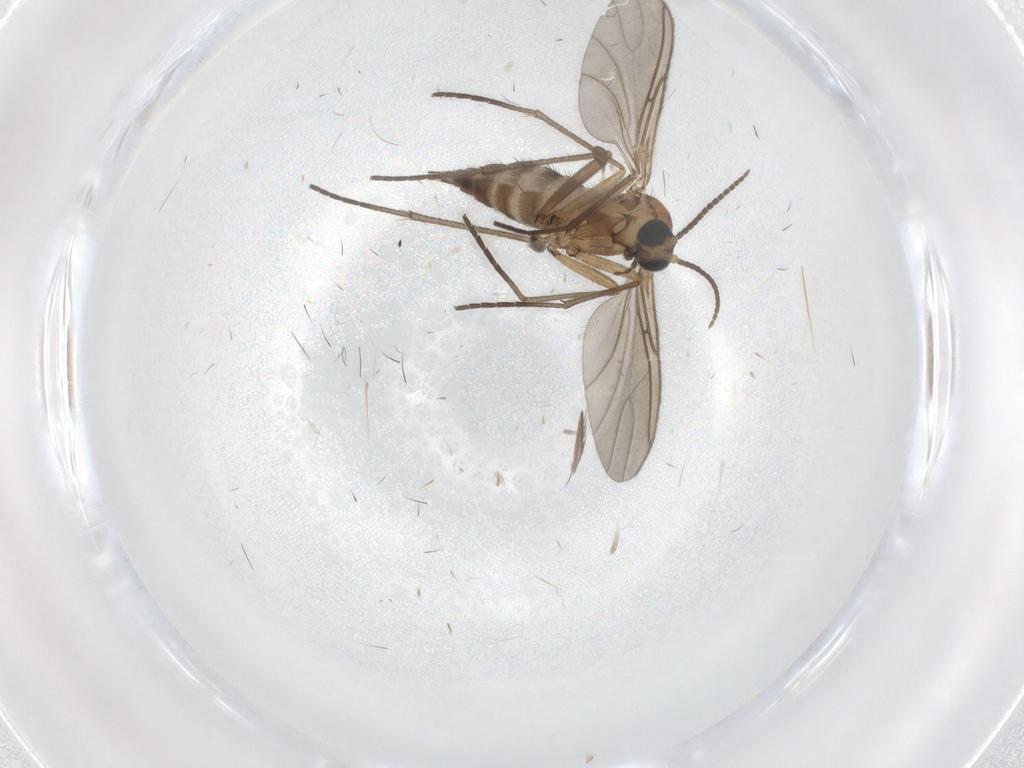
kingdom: Animalia
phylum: Arthropoda
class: Insecta
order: Diptera
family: Sciaridae
